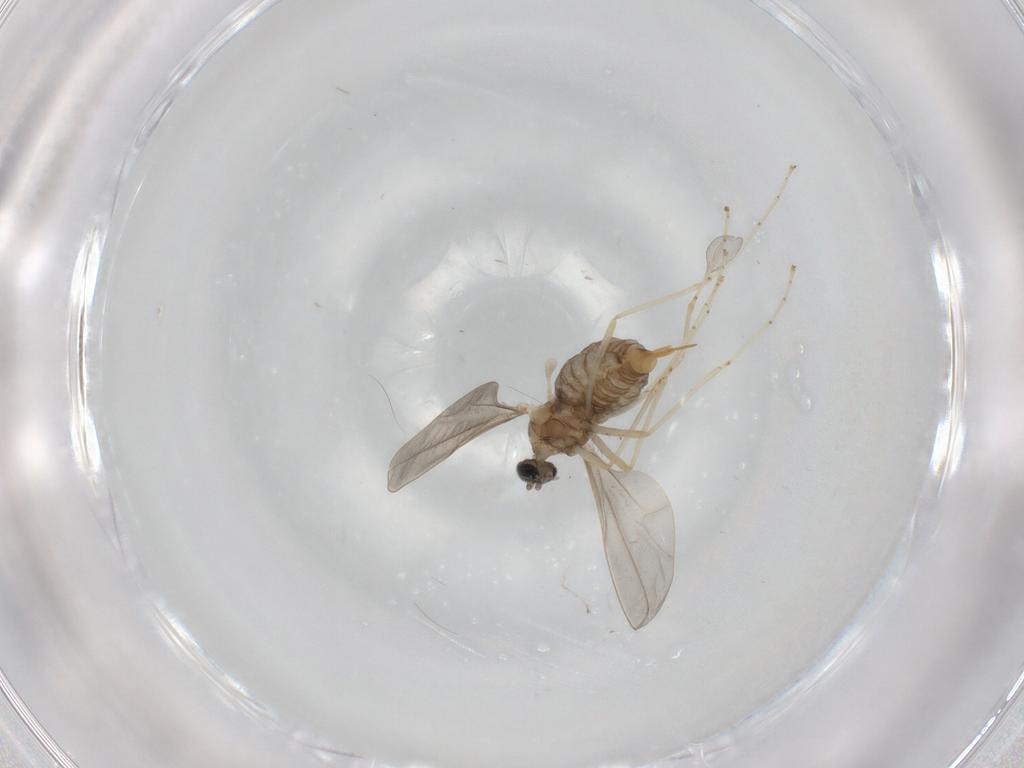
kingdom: Animalia
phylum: Arthropoda
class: Insecta
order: Diptera
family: Cecidomyiidae
